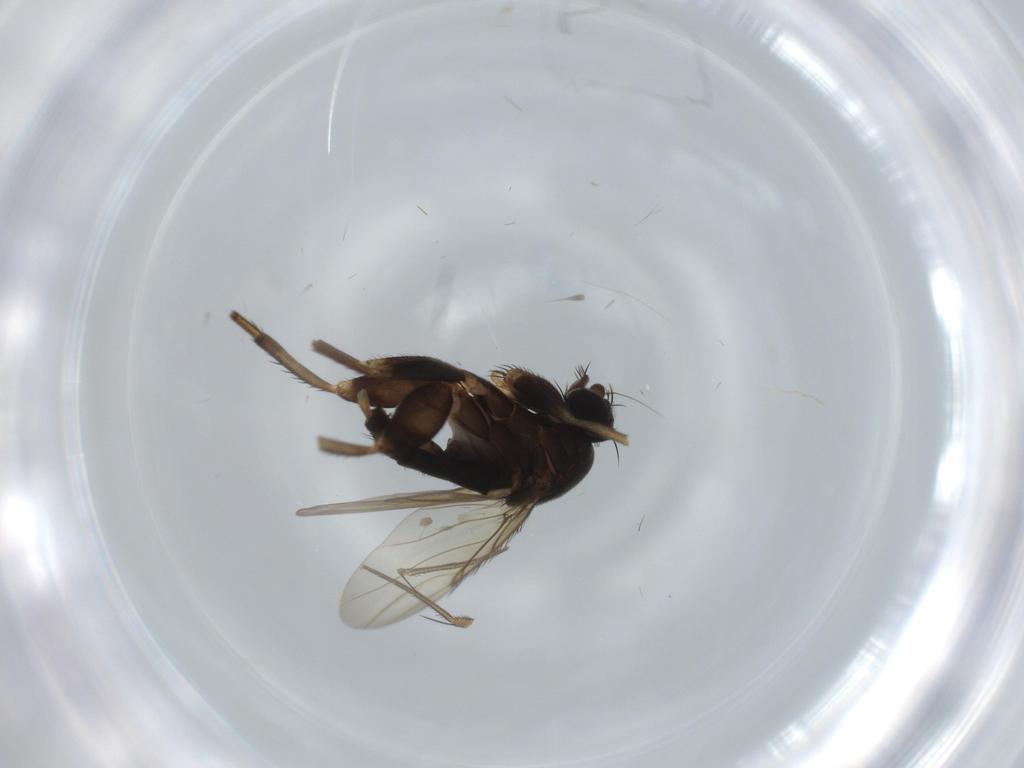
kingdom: Animalia
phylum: Arthropoda
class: Insecta
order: Diptera
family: Phoridae
